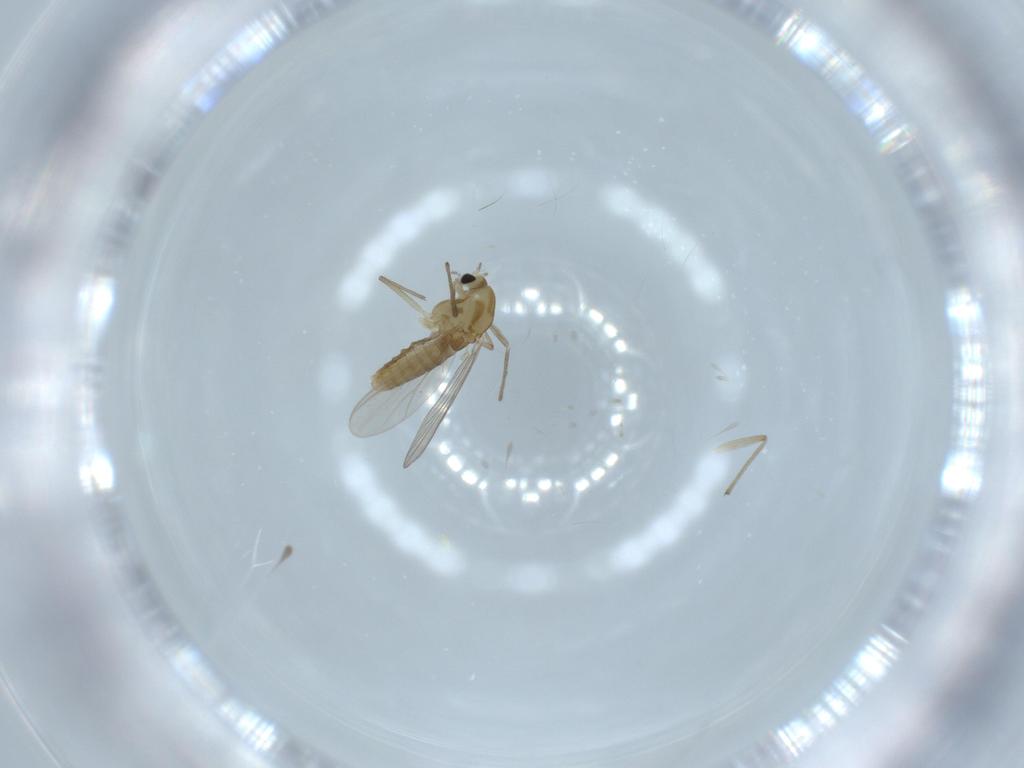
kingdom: Animalia
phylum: Arthropoda
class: Insecta
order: Diptera
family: Chironomidae
